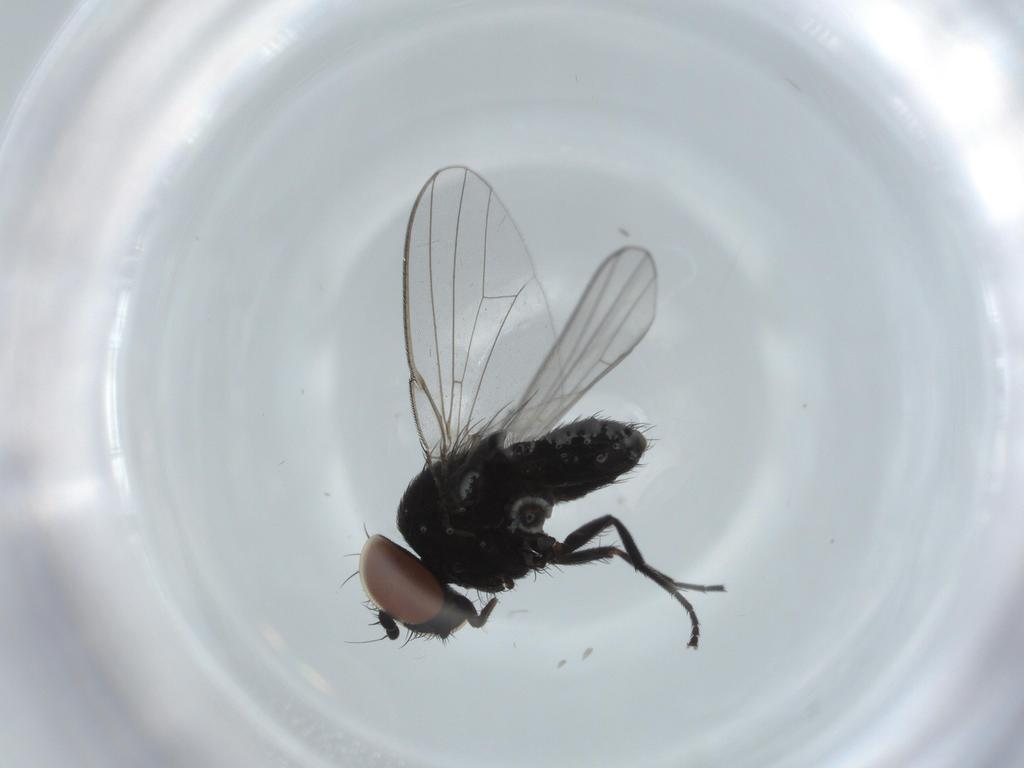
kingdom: Animalia
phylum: Arthropoda
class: Insecta
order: Diptera
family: Milichiidae
